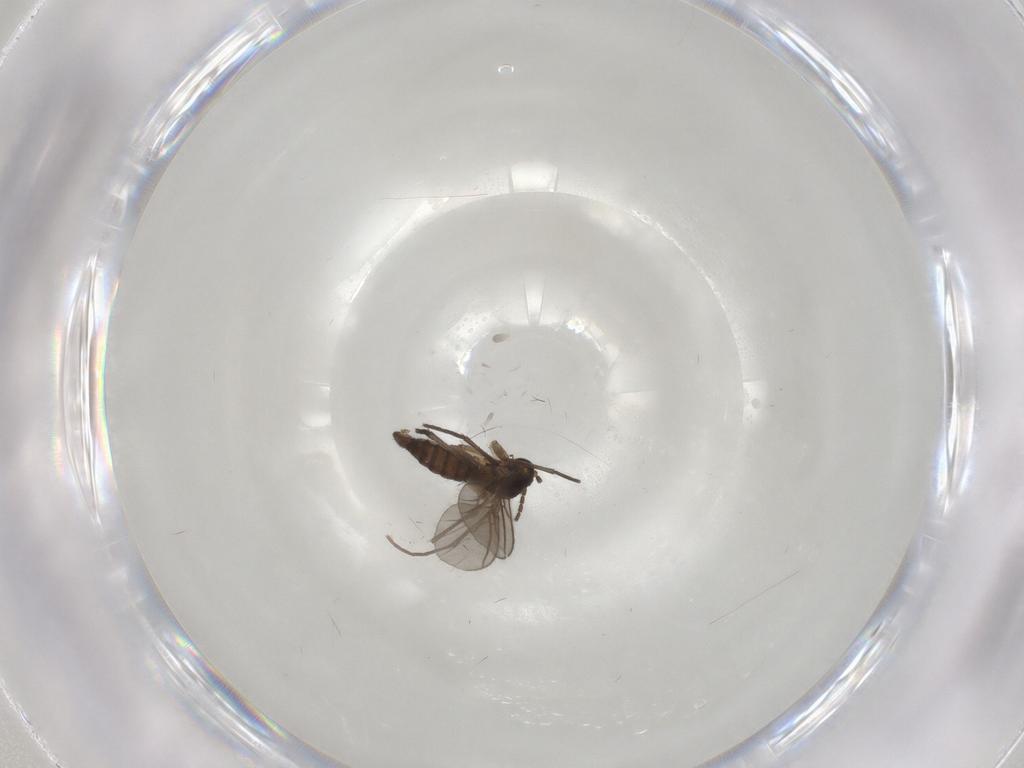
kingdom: Animalia
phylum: Arthropoda
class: Insecta
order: Diptera
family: Sciaridae
